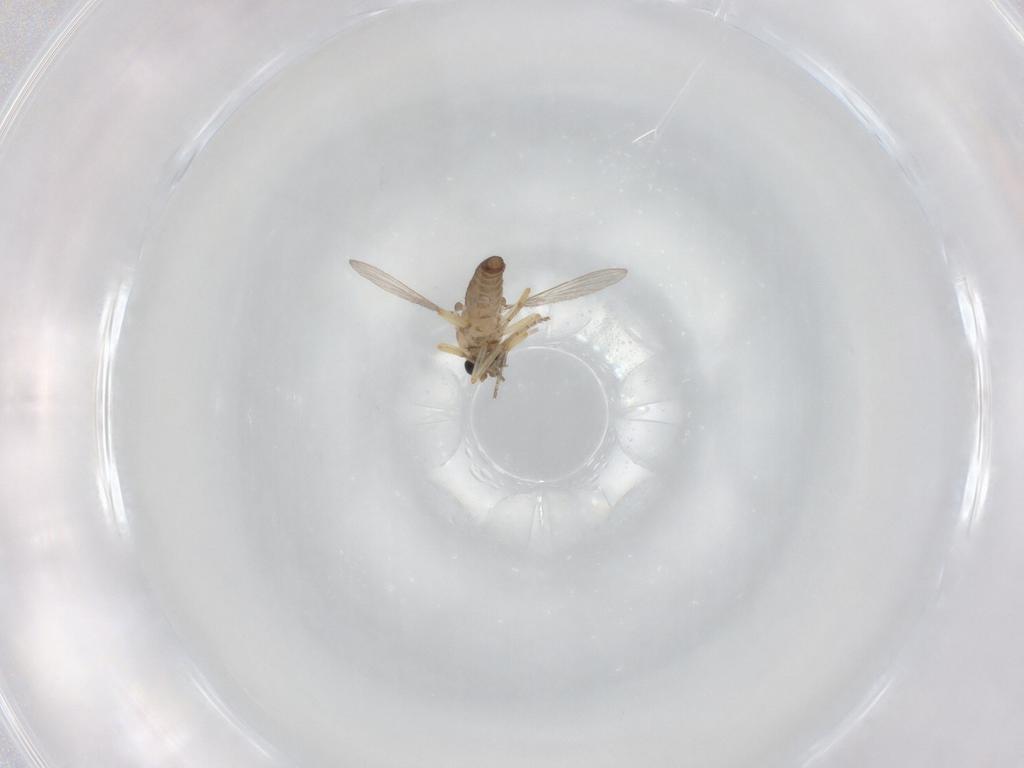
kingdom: Animalia
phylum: Arthropoda
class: Insecta
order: Diptera
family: Ceratopogonidae
